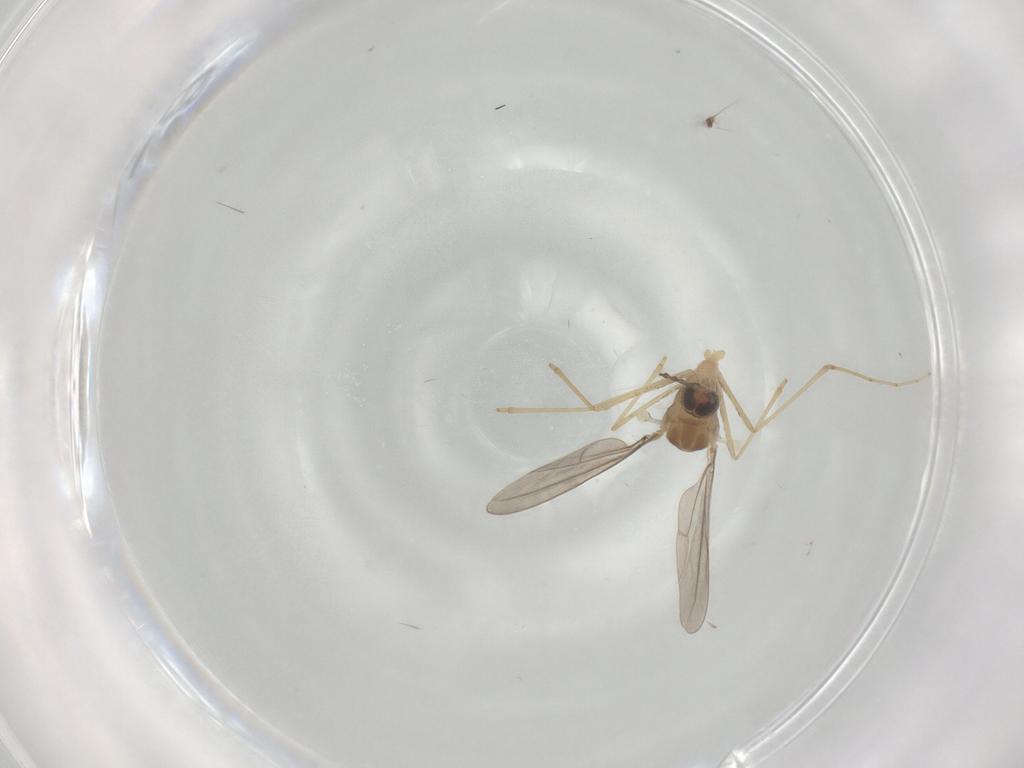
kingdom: Animalia
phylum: Arthropoda
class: Insecta
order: Diptera
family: Cecidomyiidae
